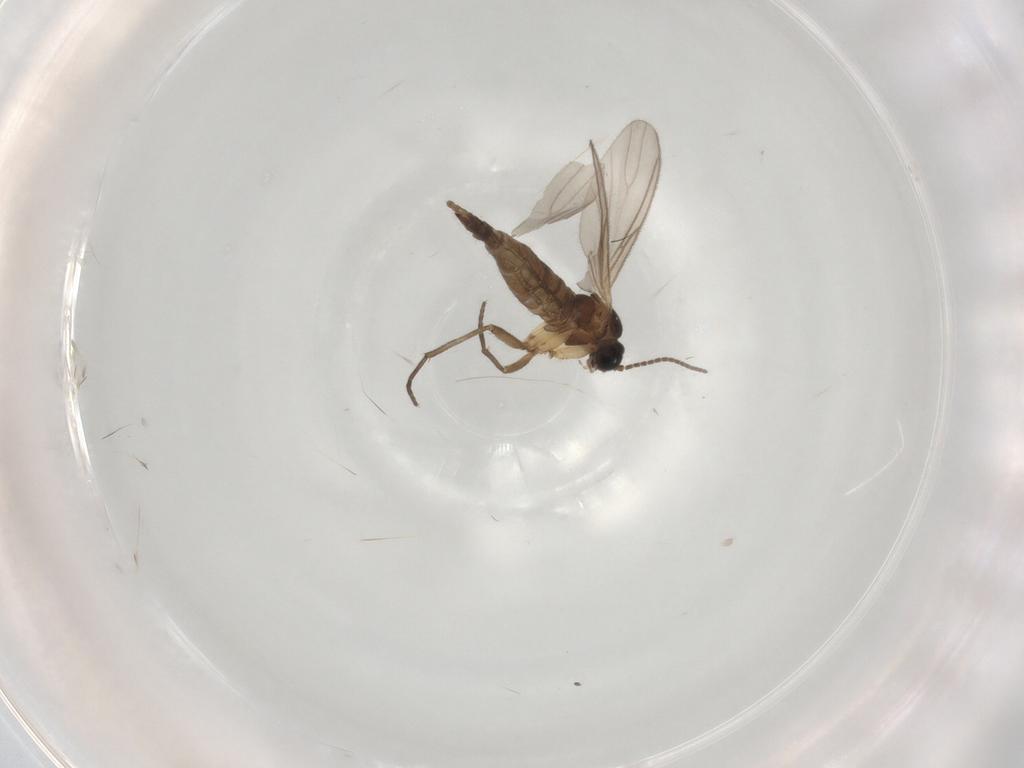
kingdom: Animalia
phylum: Arthropoda
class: Insecta
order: Diptera
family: Sciaridae
